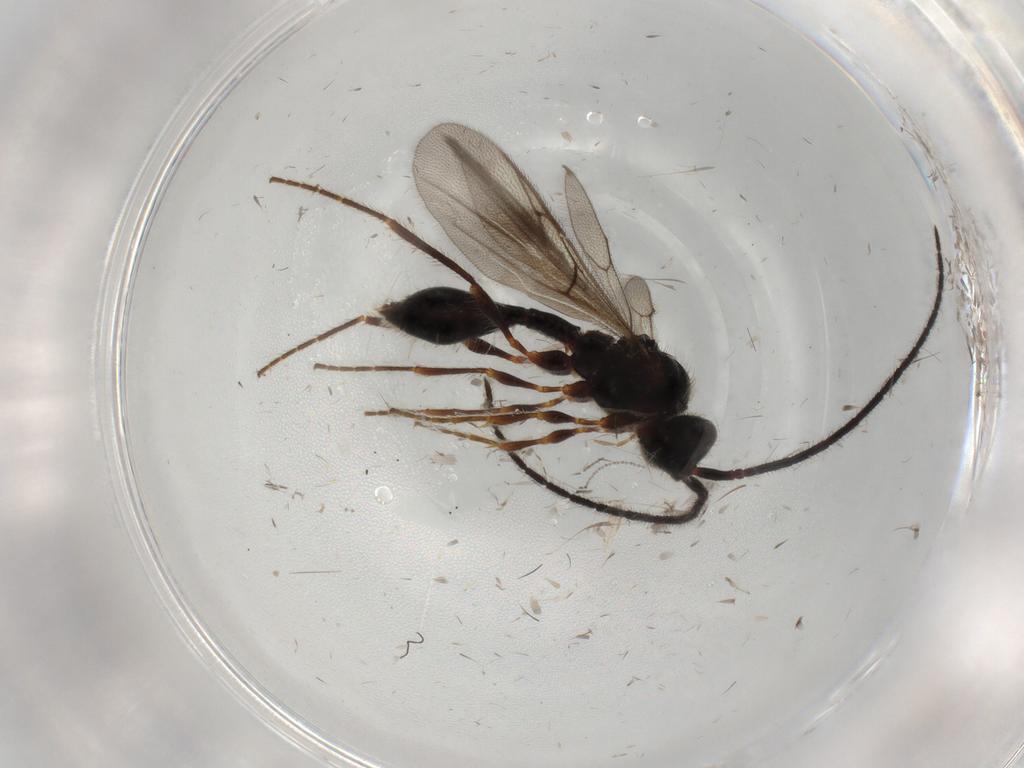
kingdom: Animalia
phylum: Arthropoda
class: Insecta
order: Hymenoptera
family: Diapriidae
